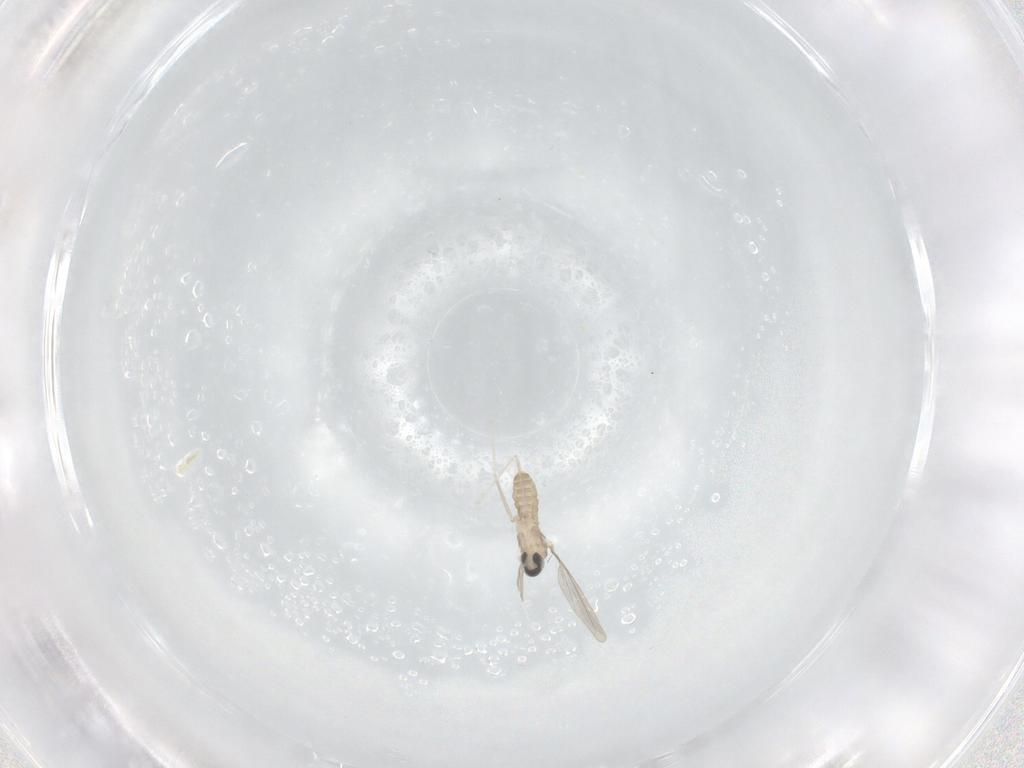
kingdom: Animalia
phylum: Arthropoda
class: Insecta
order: Diptera
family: Cecidomyiidae
